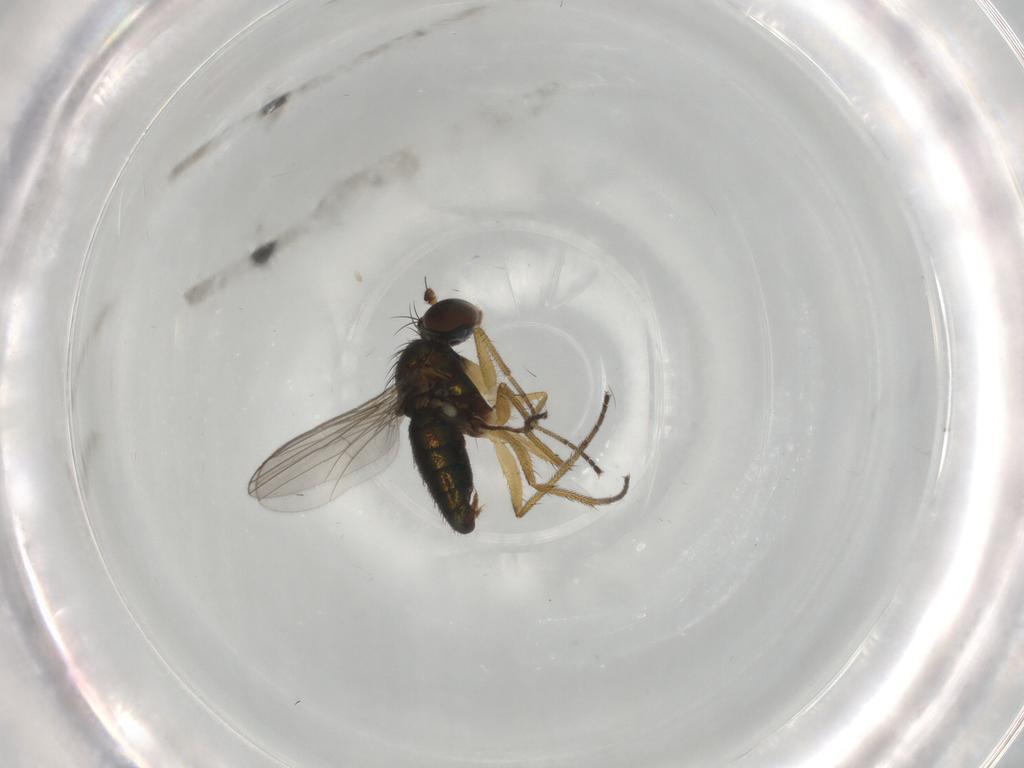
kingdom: Animalia
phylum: Arthropoda
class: Insecta
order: Diptera
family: Dolichopodidae
